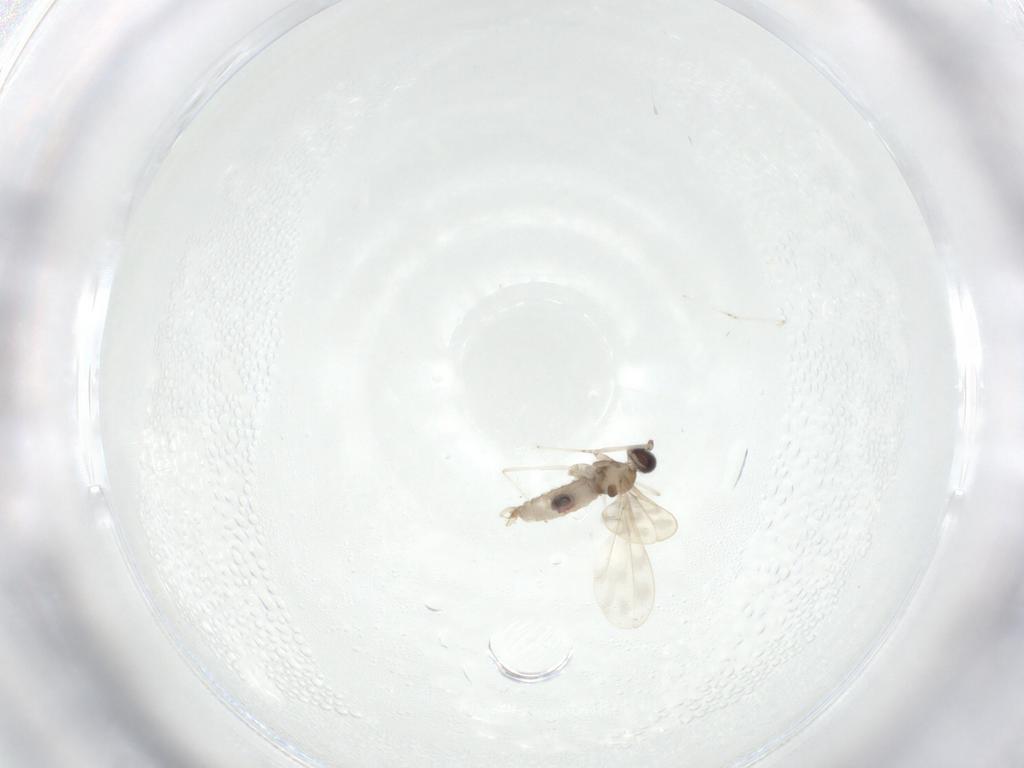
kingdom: Animalia
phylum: Arthropoda
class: Insecta
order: Diptera
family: Cecidomyiidae
